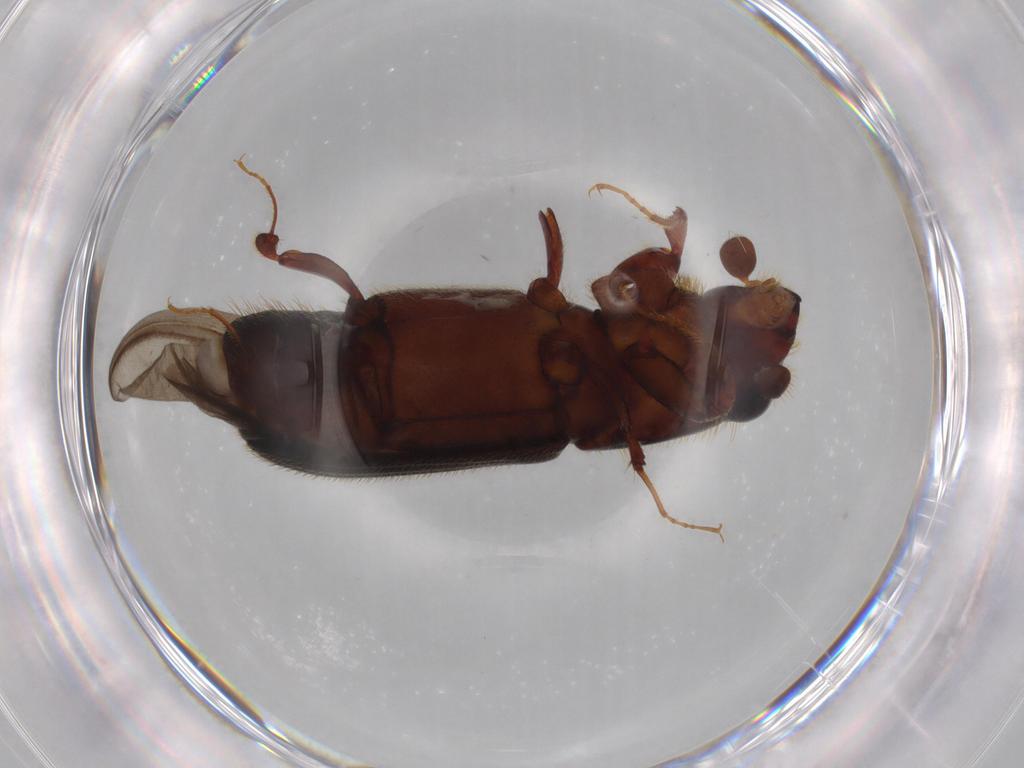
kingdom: Animalia
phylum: Arthropoda
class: Insecta
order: Coleoptera
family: Curculionidae
